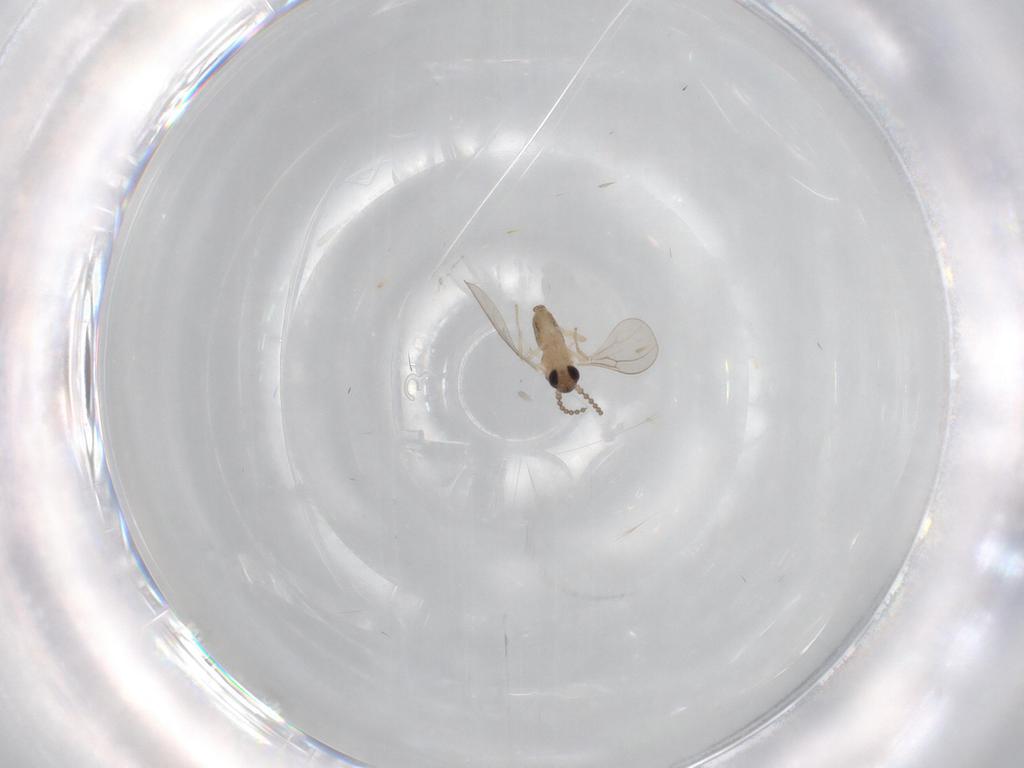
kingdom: Animalia
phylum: Arthropoda
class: Insecta
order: Diptera
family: Cecidomyiidae
